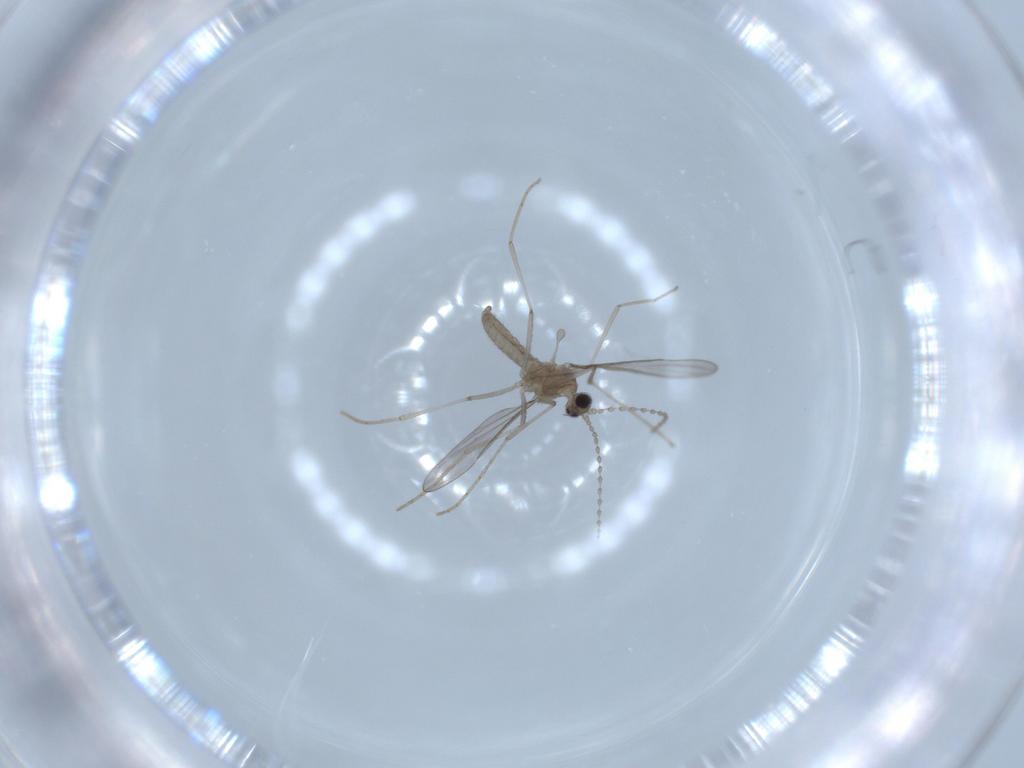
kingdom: Animalia
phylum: Arthropoda
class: Insecta
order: Diptera
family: Cecidomyiidae
